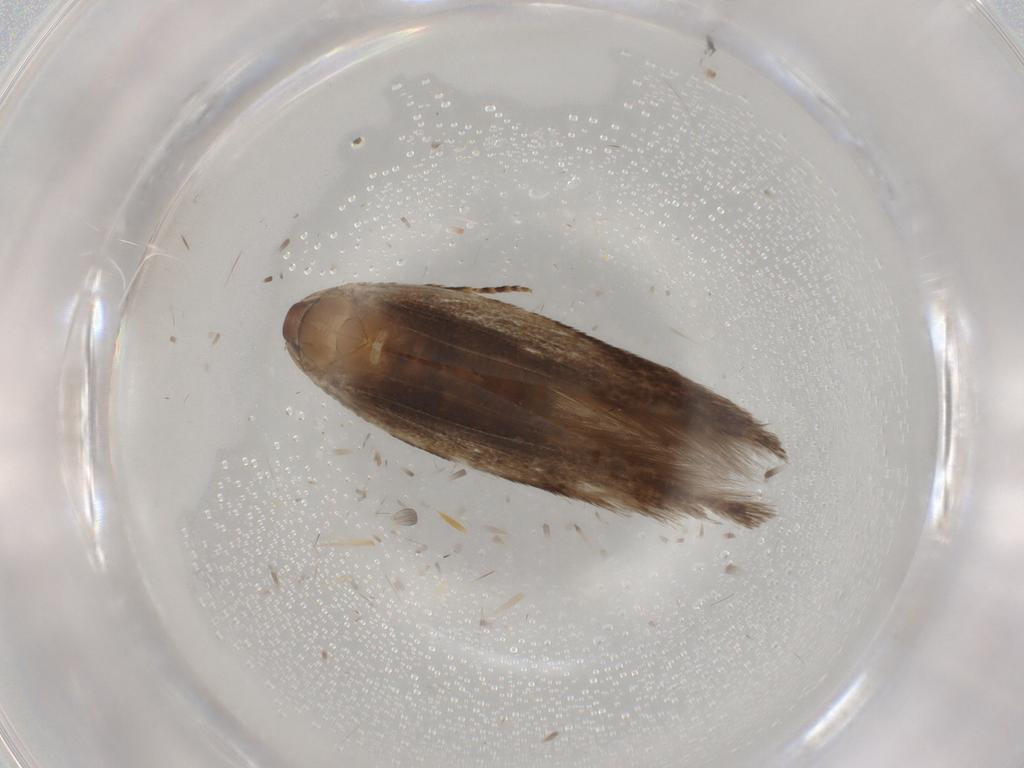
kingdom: Animalia
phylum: Arthropoda
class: Insecta
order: Lepidoptera
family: Cosmopterigidae
